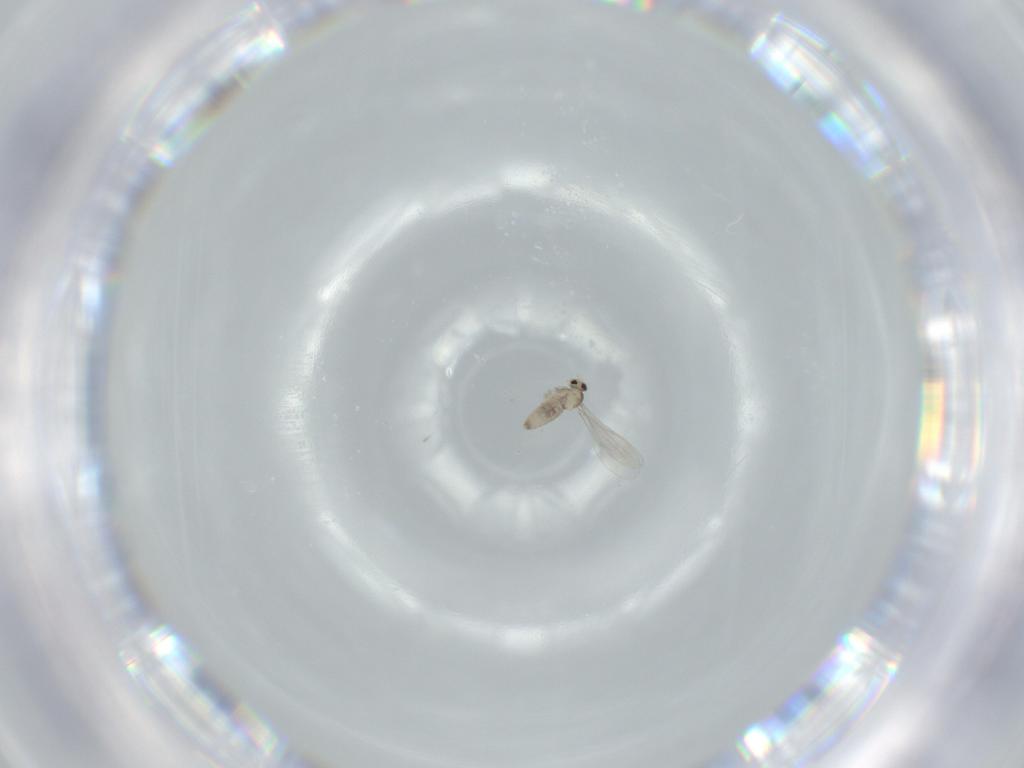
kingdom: Animalia
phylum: Arthropoda
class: Insecta
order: Diptera
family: Cecidomyiidae
